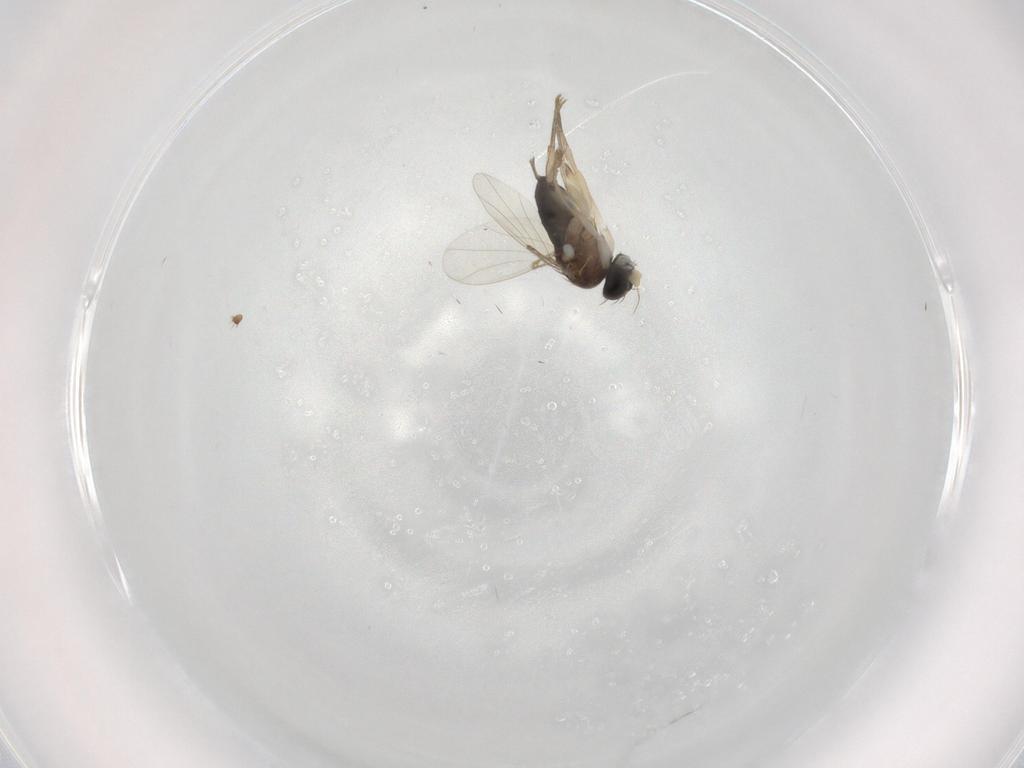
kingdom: Animalia
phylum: Arthropoda
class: Insecta
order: Diptera
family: Phoridae
